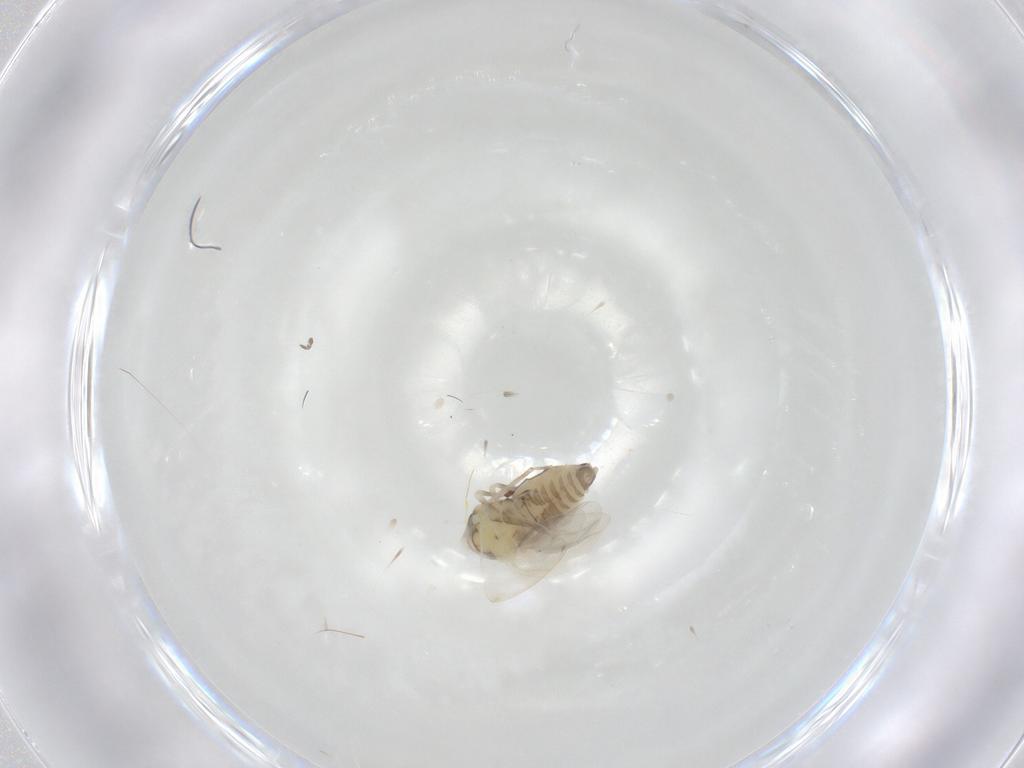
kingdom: Animalia
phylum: Arthropoda
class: Insecta
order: Hemiptera
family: Aleyrodidae
